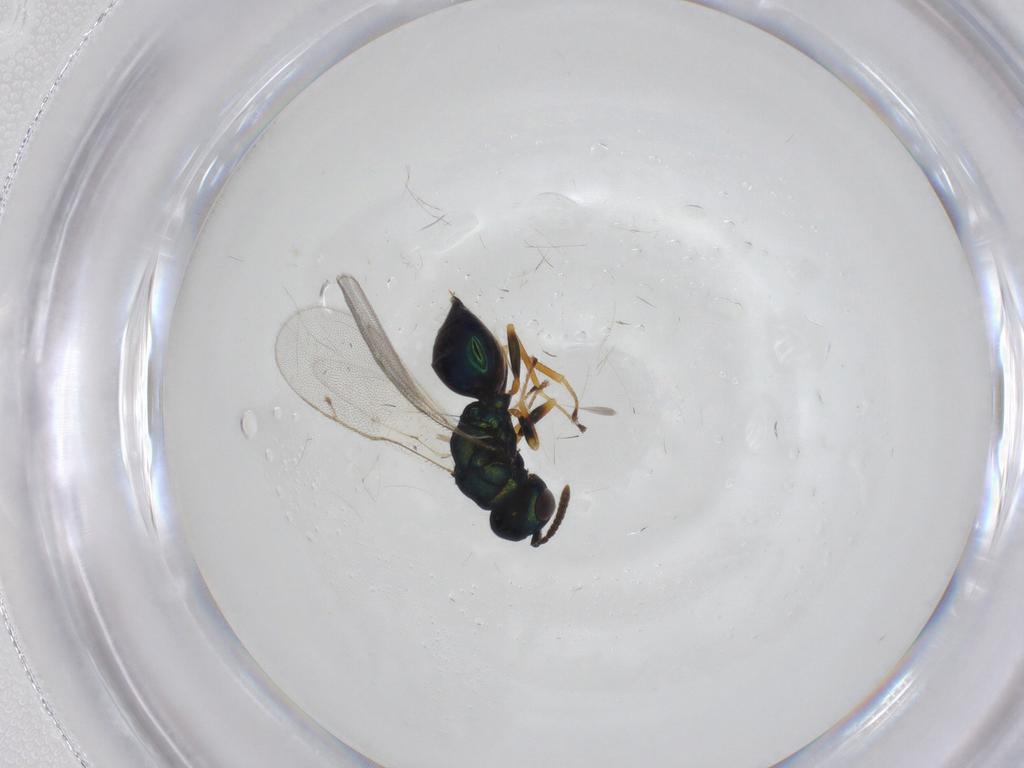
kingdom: Animalia
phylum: Arthropoda
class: Insecta
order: Hymenoptera
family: Pteromalidae
